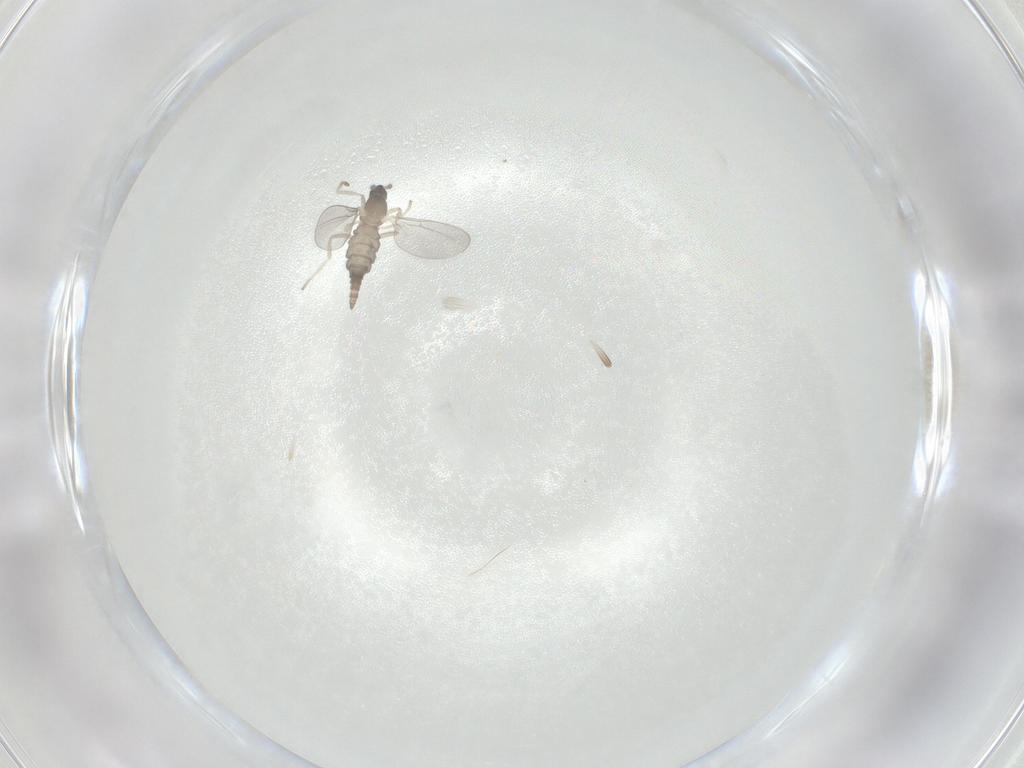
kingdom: Animalia
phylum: Arthropoda
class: Insecta
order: Diptera
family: Cecidomyiidae
